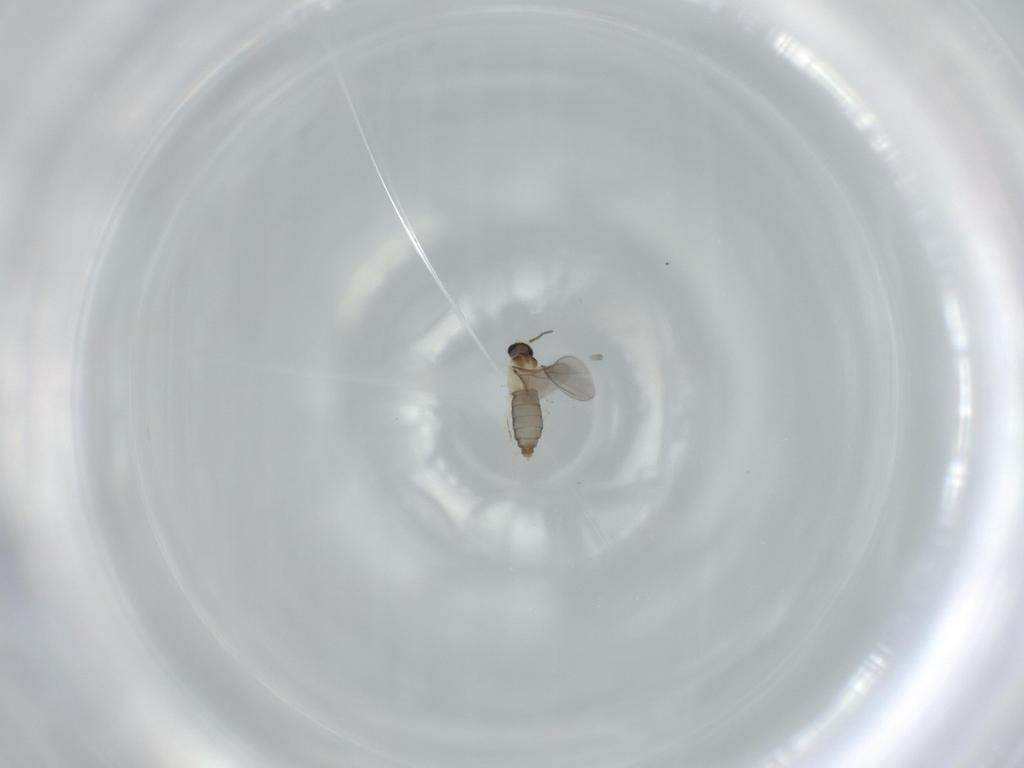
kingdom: Animalia
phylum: Arthropoda
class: Insecta
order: Diptera
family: Cecidomyiidae
